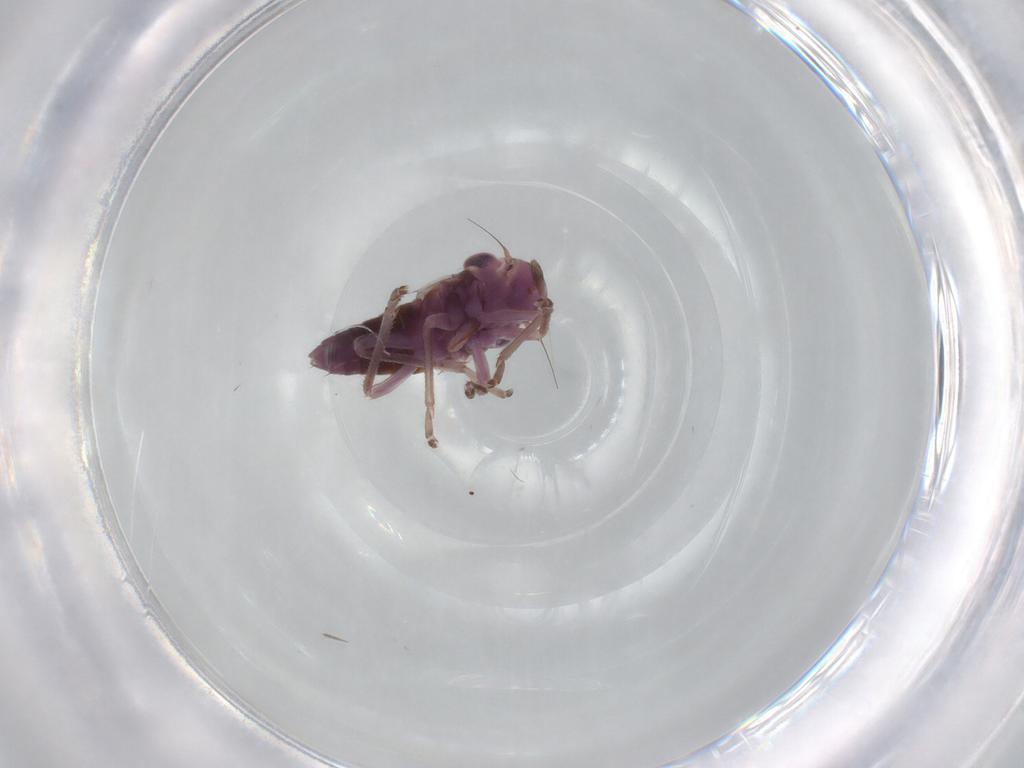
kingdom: Animalia
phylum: Arthropoda
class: Insecta
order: Hemiptera
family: Cicadellidae
